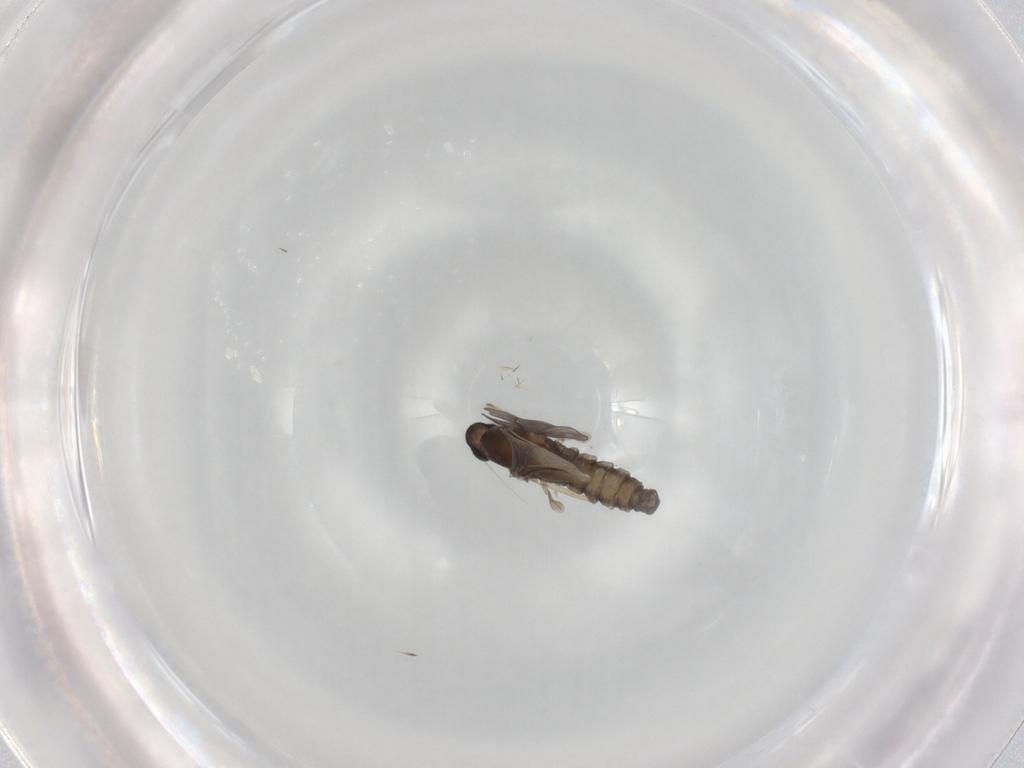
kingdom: Animalia
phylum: Arthropoda
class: Insecta
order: Diptera
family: Cecidomyiidae
